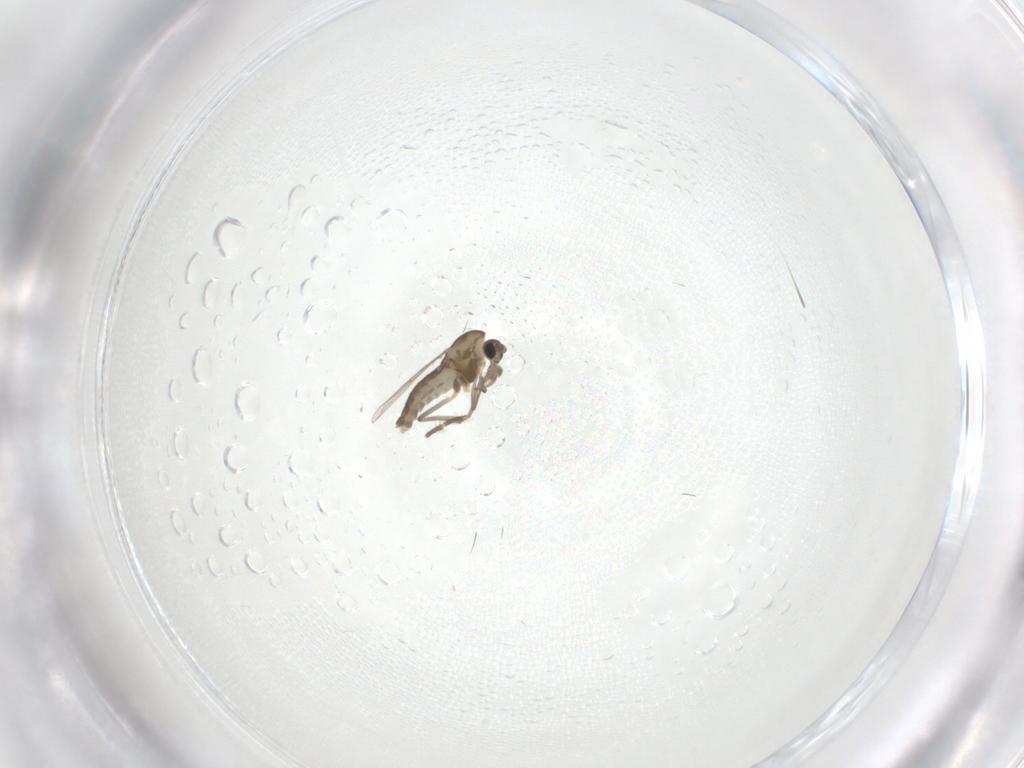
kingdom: Animalia
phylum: Arthropoda
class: Insecta
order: Diptera
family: Chironomidae
